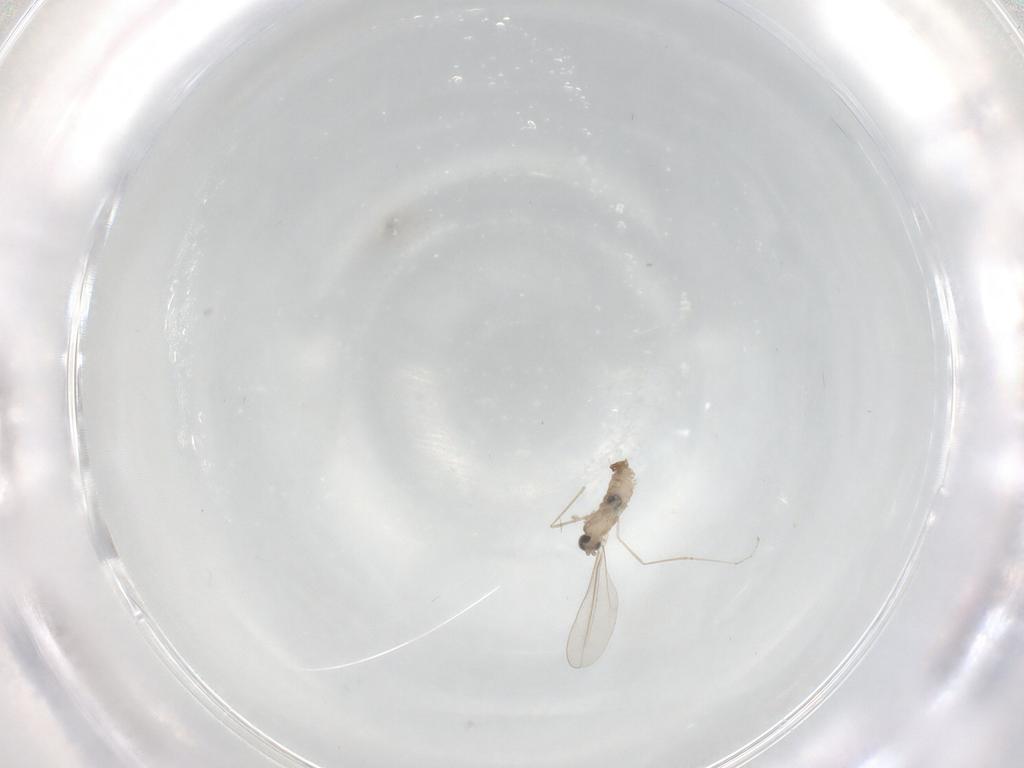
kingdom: Animalia
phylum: Arthropoda
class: Insecta
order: Diptera
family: Cecidomyiidae
